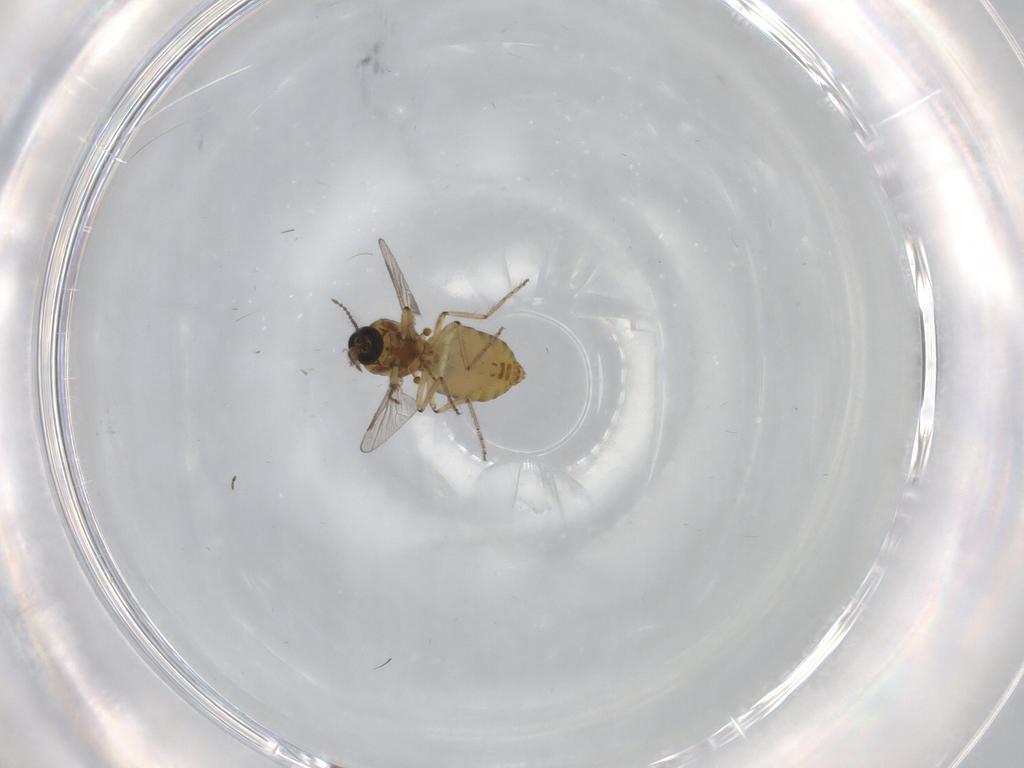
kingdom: Animalia
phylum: Arthropoda
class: Insecta
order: Diptera
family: Ceratopogonidae
